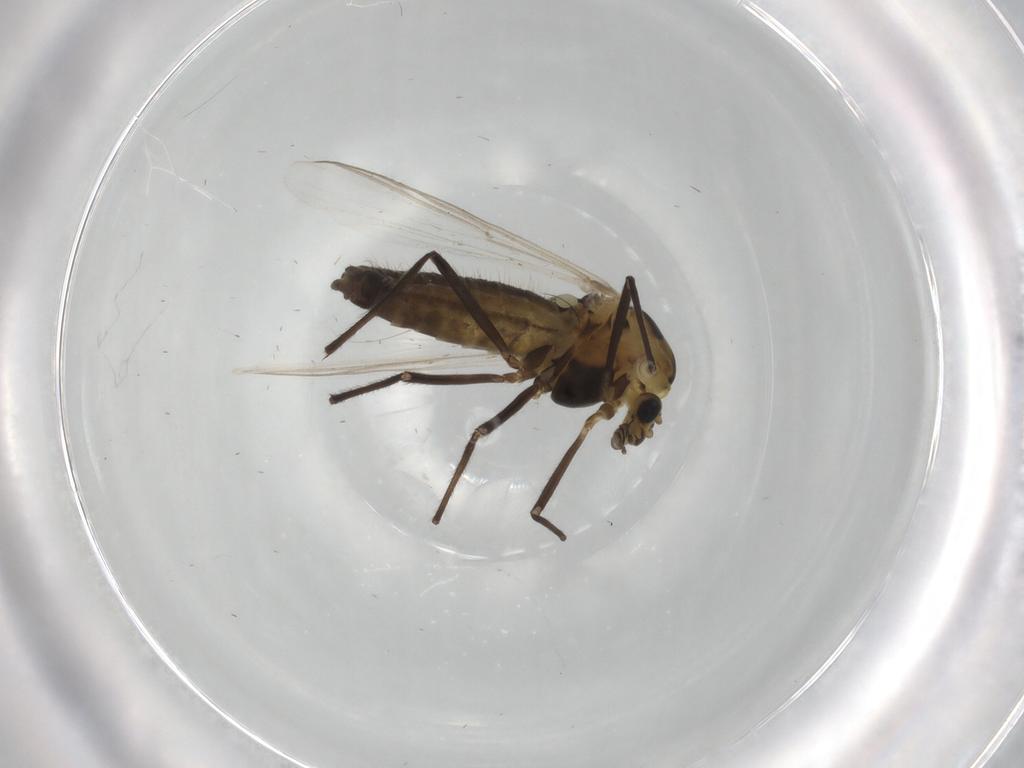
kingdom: Animalia
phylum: Arthropoda
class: Insecta
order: Diptera
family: Cecidomyiidae
